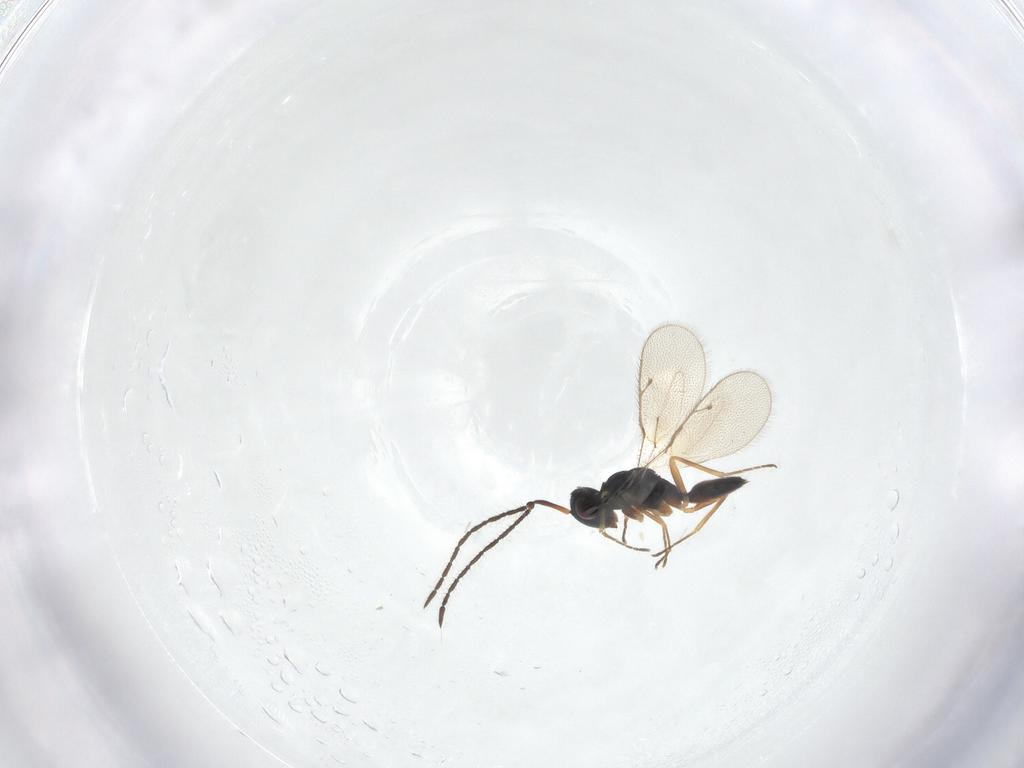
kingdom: Animalia
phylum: Arthropoda
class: Insecta
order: Hymenoptera
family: Pteromalidae
